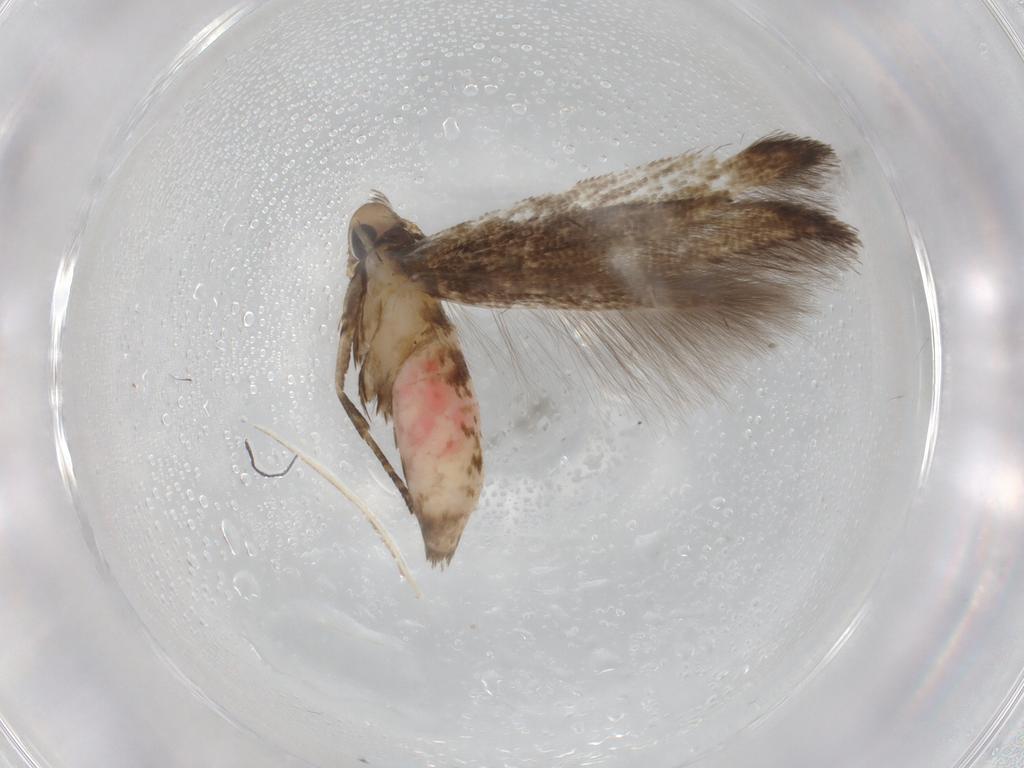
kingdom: Animalia
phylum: Arthropoda
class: Insecta
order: Lepidoptera
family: Cosmopterigidae
